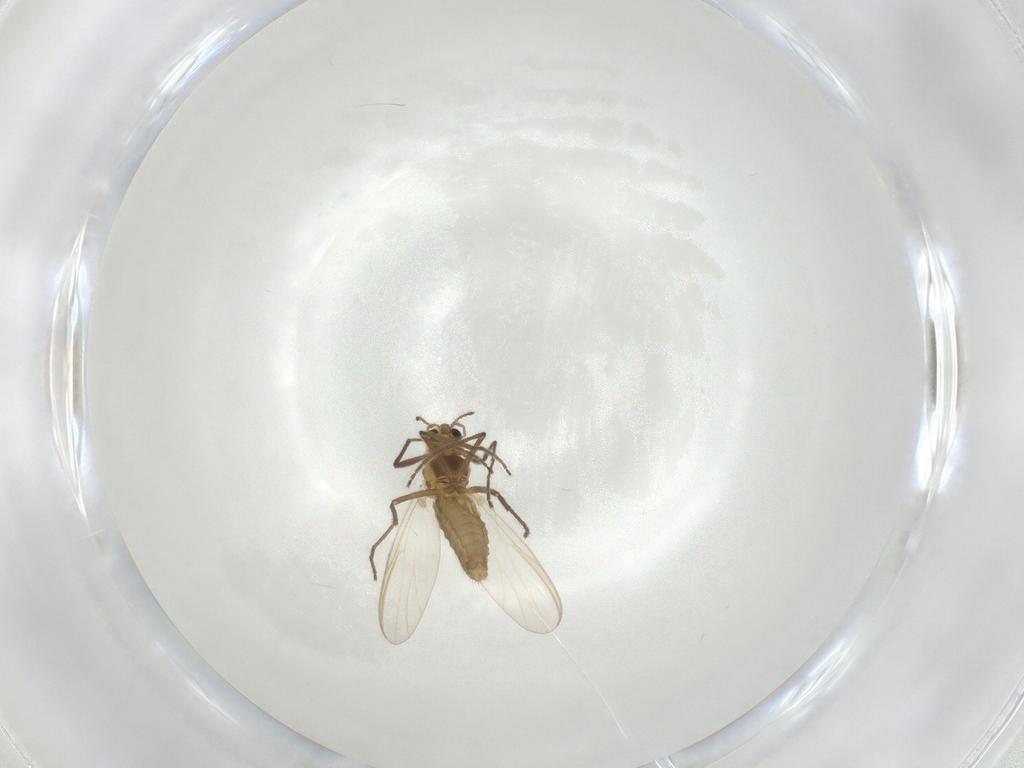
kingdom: Animalia
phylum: Arthropoda
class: Insecta
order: Diptera
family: Chironomidae
